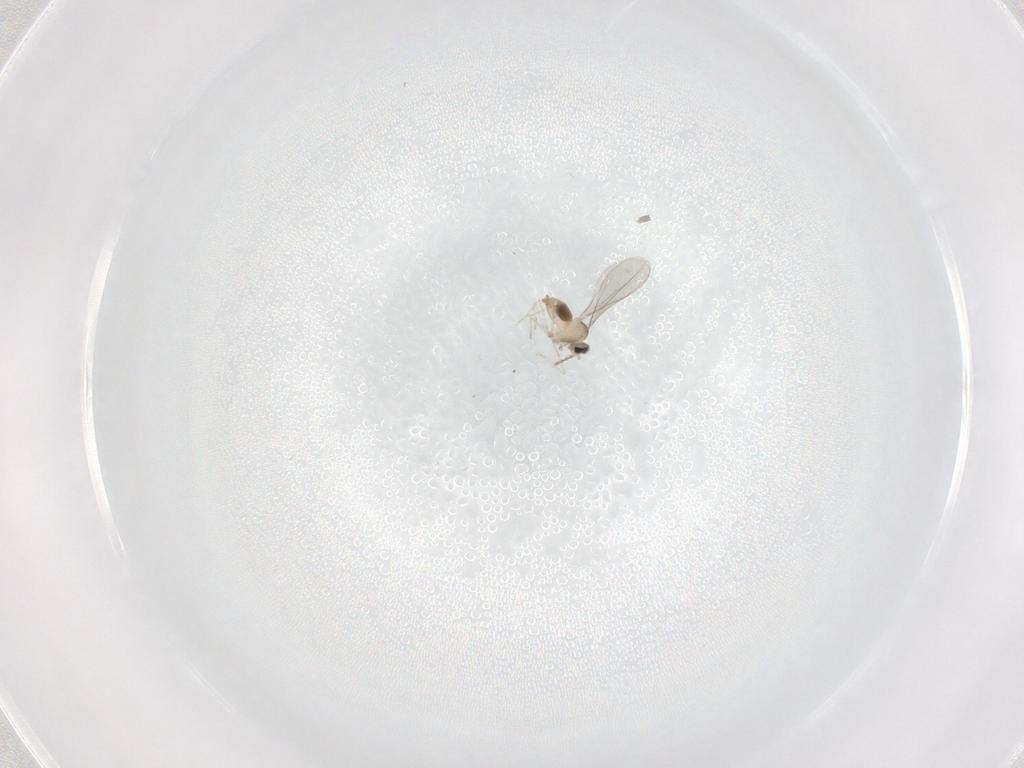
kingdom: Animalia
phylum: Arthropoda
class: Insecta
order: Diptera
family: Cecidomyiidae
